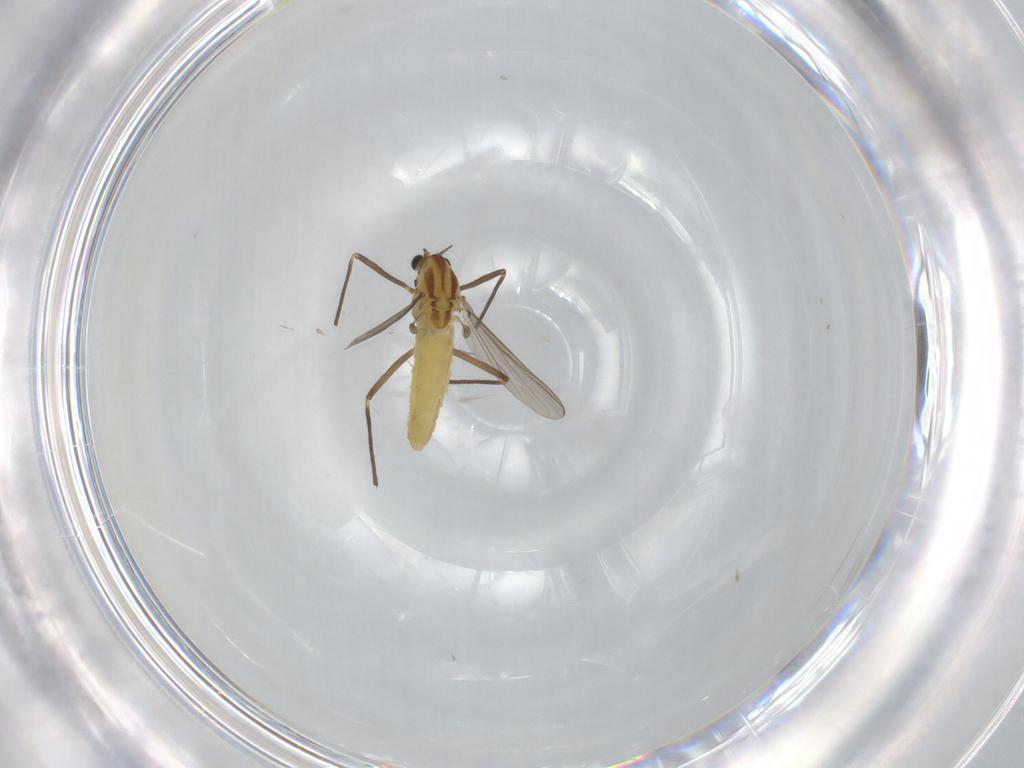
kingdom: Animalia
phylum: Arthropoda
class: Insecta
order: Diptera
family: Chironomidae
